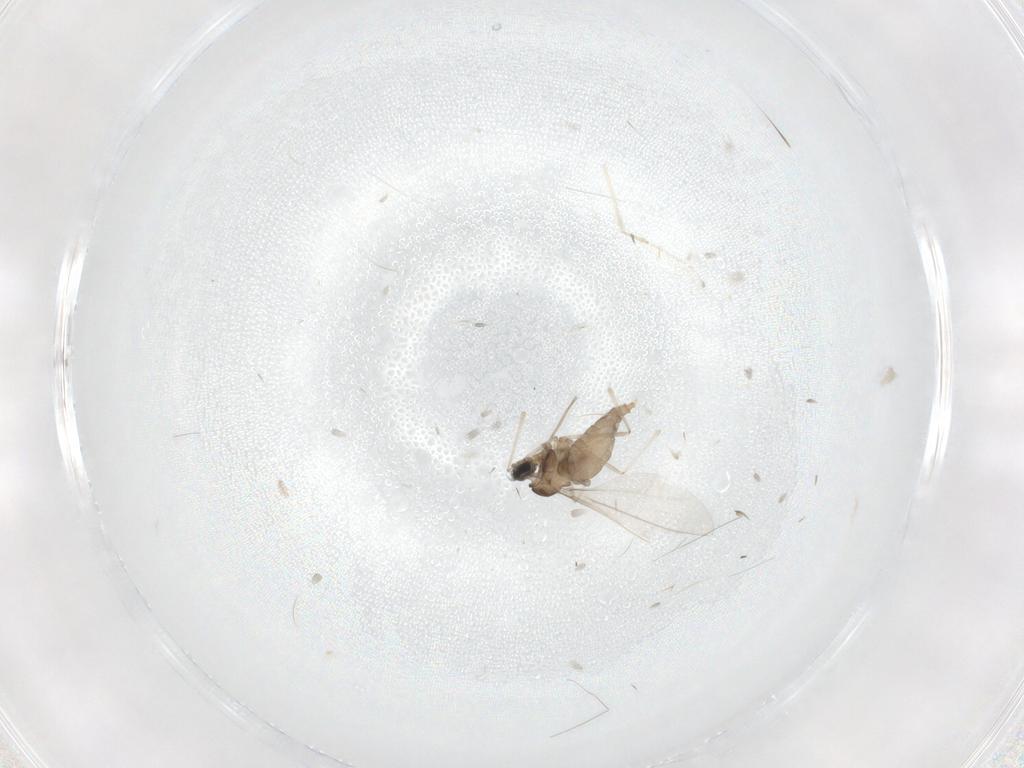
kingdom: Animalia
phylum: Arthropoda
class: Insecta
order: Diptera
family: Cecidomyiidae
